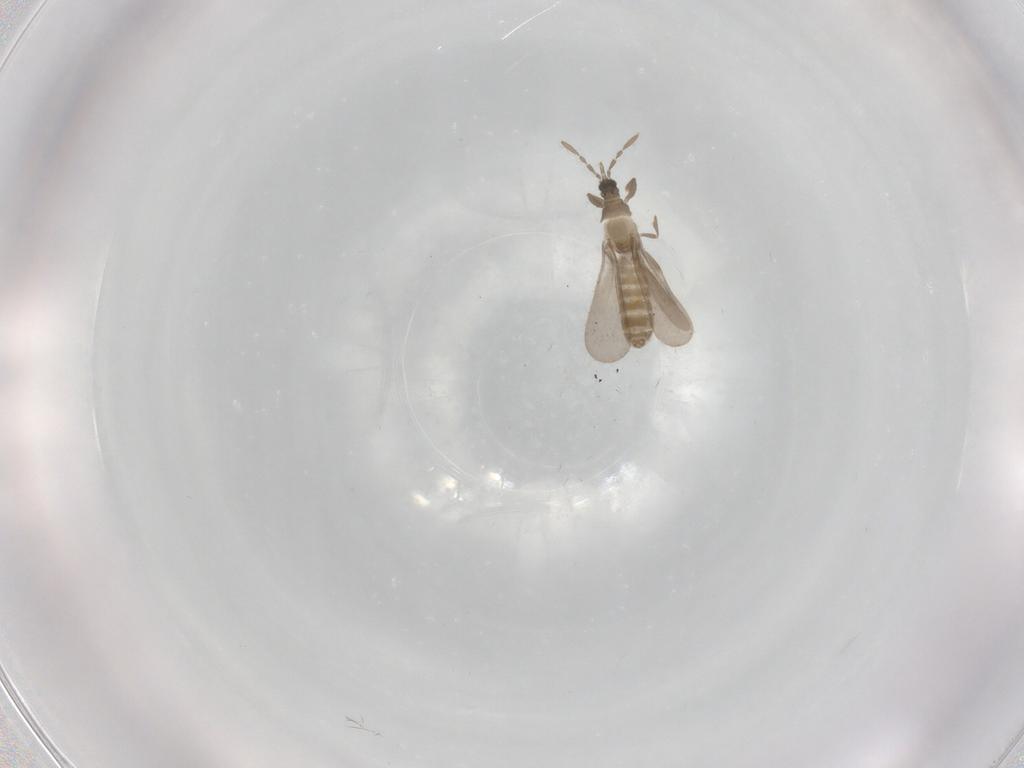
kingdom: Animalia
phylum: Arthropoda
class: Insecta
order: Hemiptera
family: Enicocephalidae
